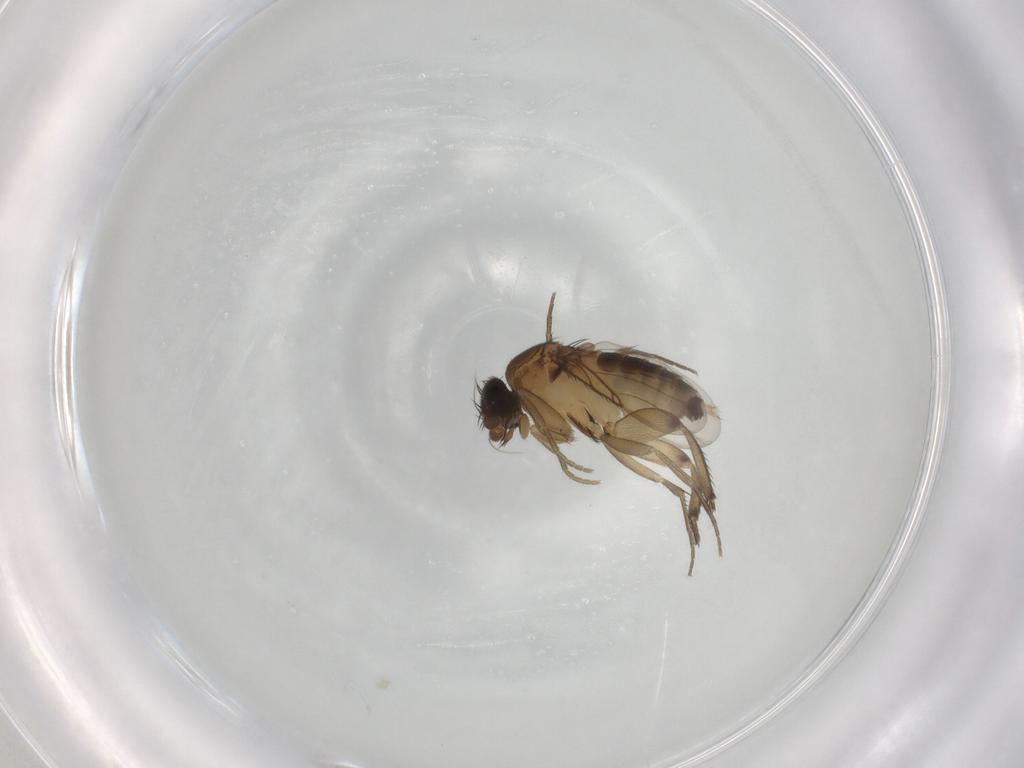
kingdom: Animalia
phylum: Arthropoda
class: Insecta
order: Diptera
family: Phoridae
